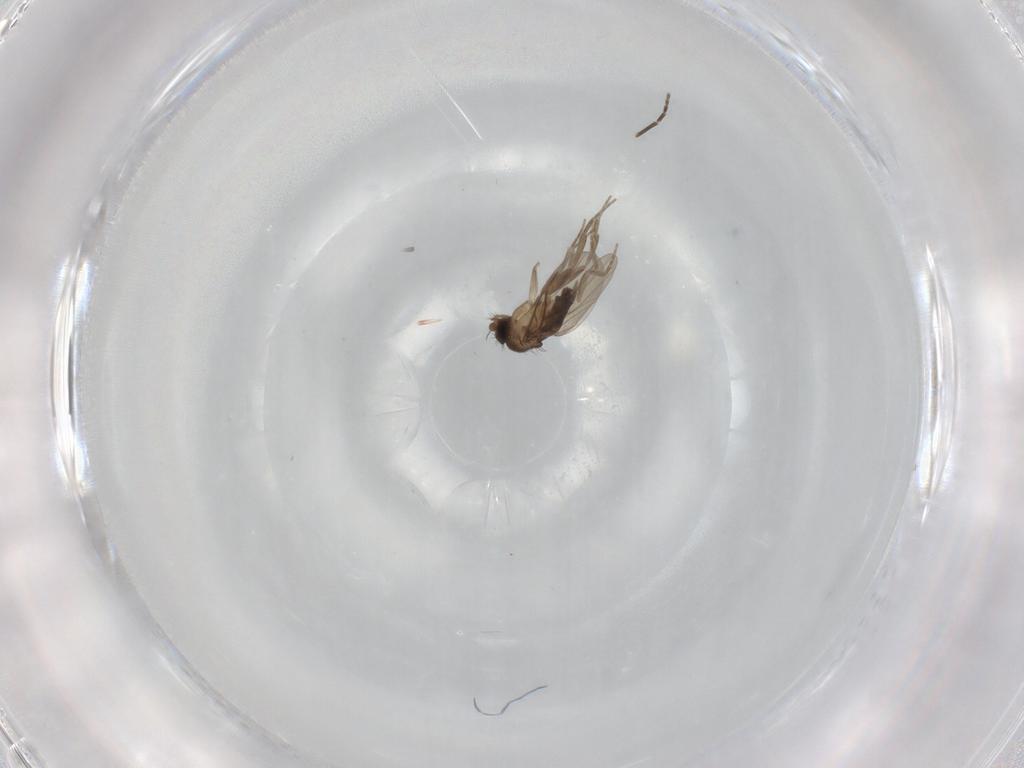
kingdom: Animalia
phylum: Arthropoda
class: Insecta
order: Diptera
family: Phoridae
